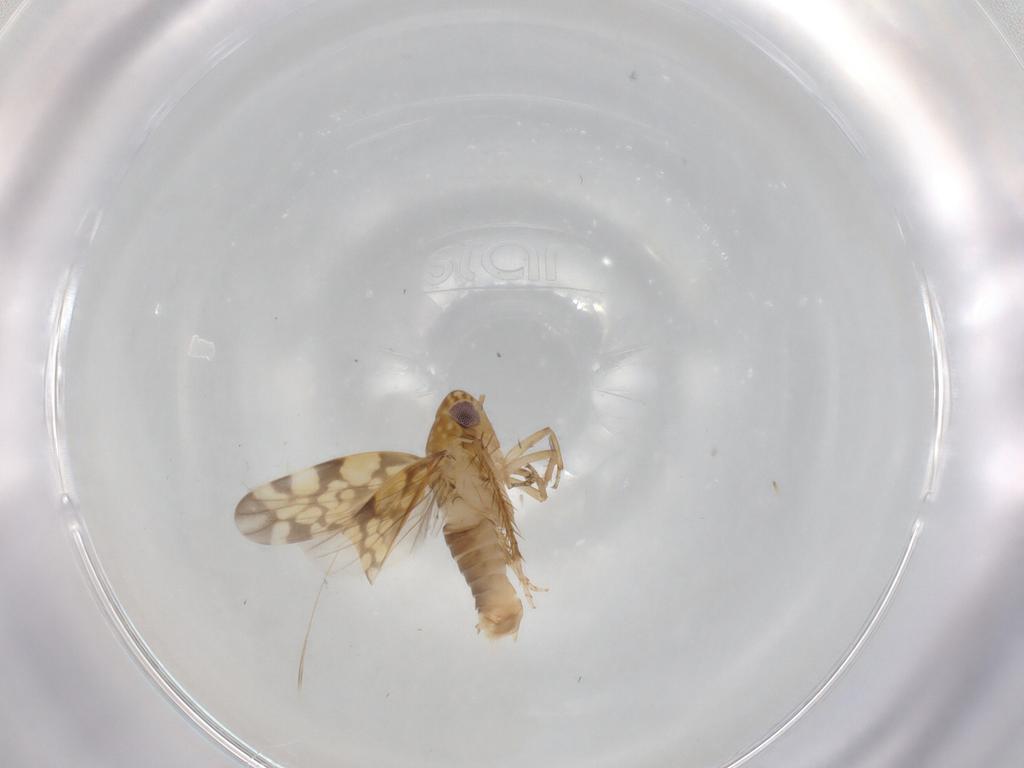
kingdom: Animalia
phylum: Arthropoda
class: Insecta
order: Hemiptera
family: Cicadellidae
